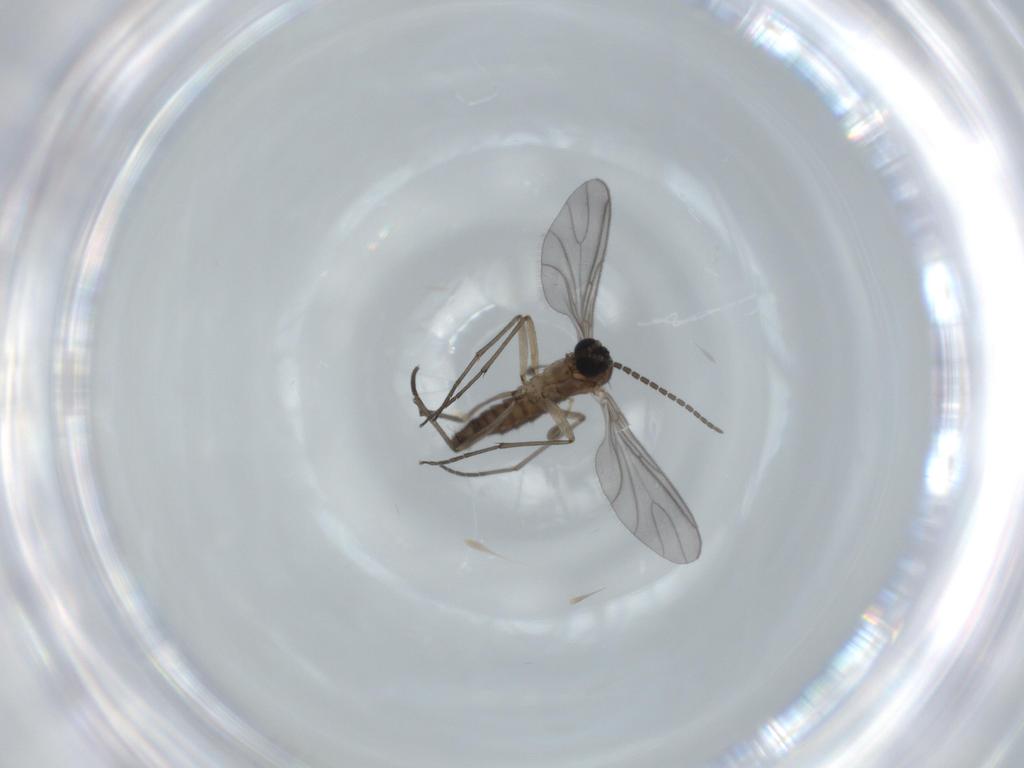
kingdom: Animalia
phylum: Arthropoda
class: Insecta
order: Diptera
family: Sciaridae
